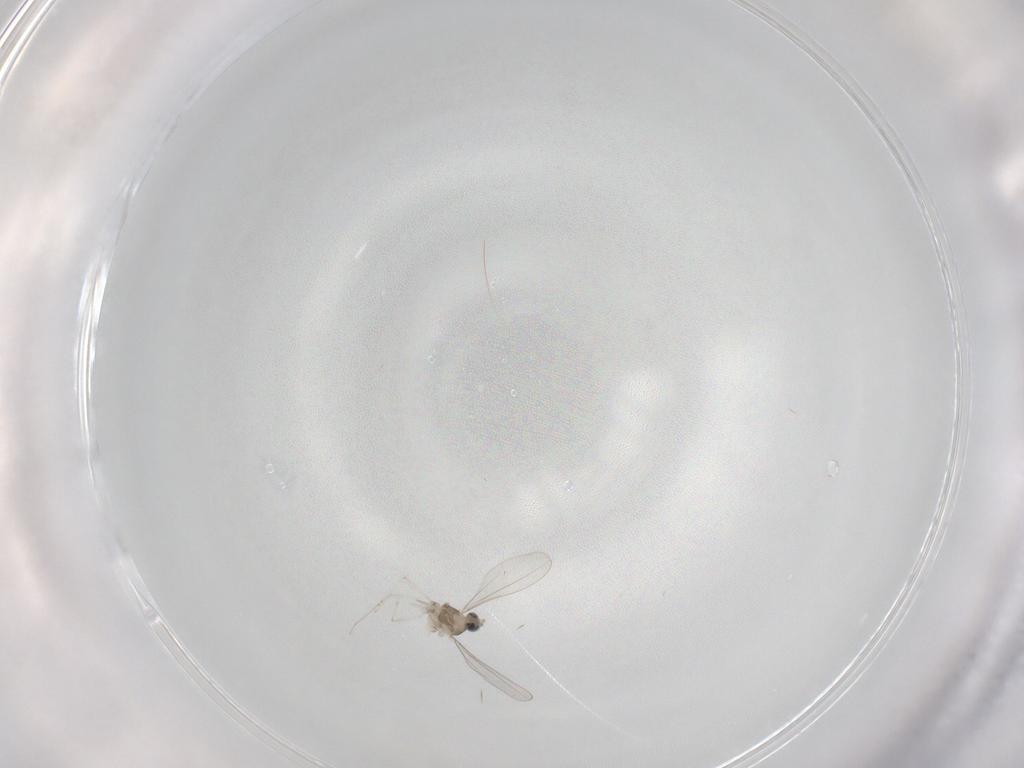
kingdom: Animalia
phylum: Arthropoda
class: Insecta
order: Diptera
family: Cecidomyiidae
